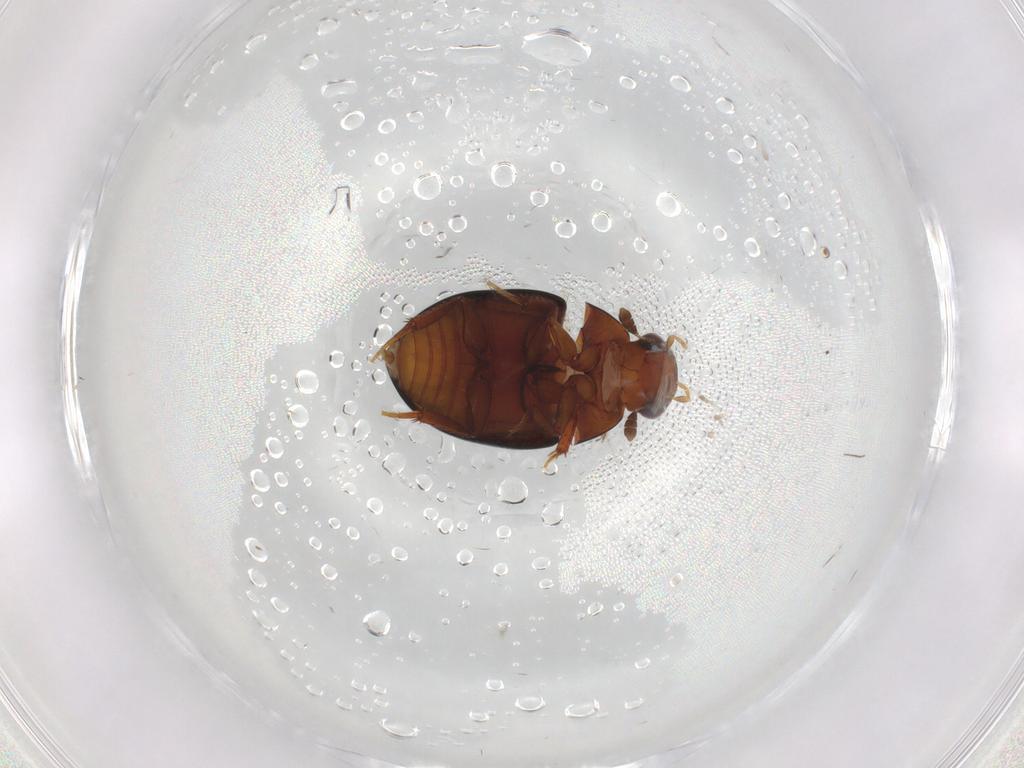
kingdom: Animalia
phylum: Arthropoda
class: Insecta
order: Coleoptera
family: Hydrophilidae
